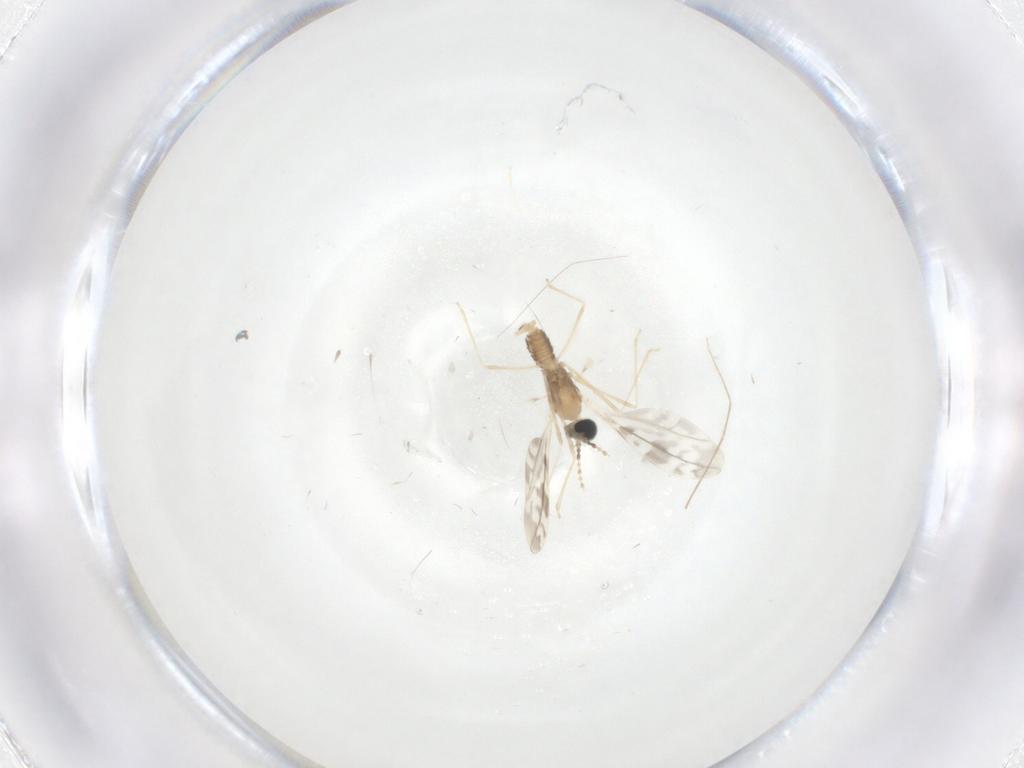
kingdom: Animalia
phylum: Arthropoda
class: Insecta
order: Diptera
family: Cecidomyiidae
